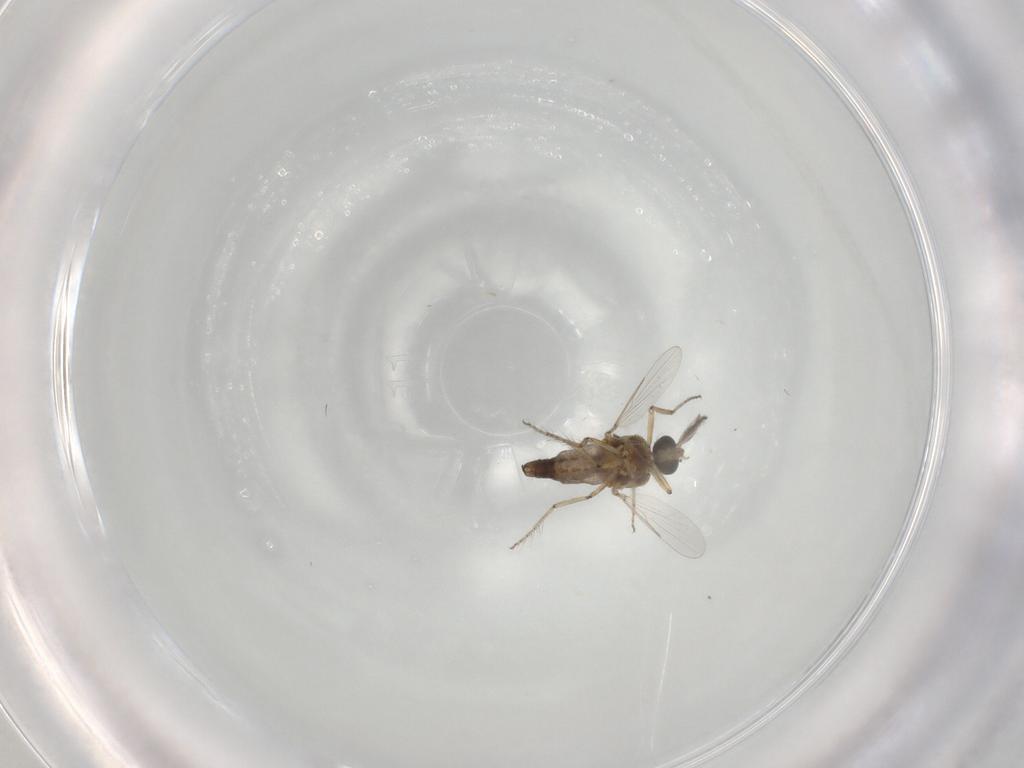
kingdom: Animalia
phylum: Arthropoda
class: Insecta
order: Diptera
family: Ceratopogonidae
